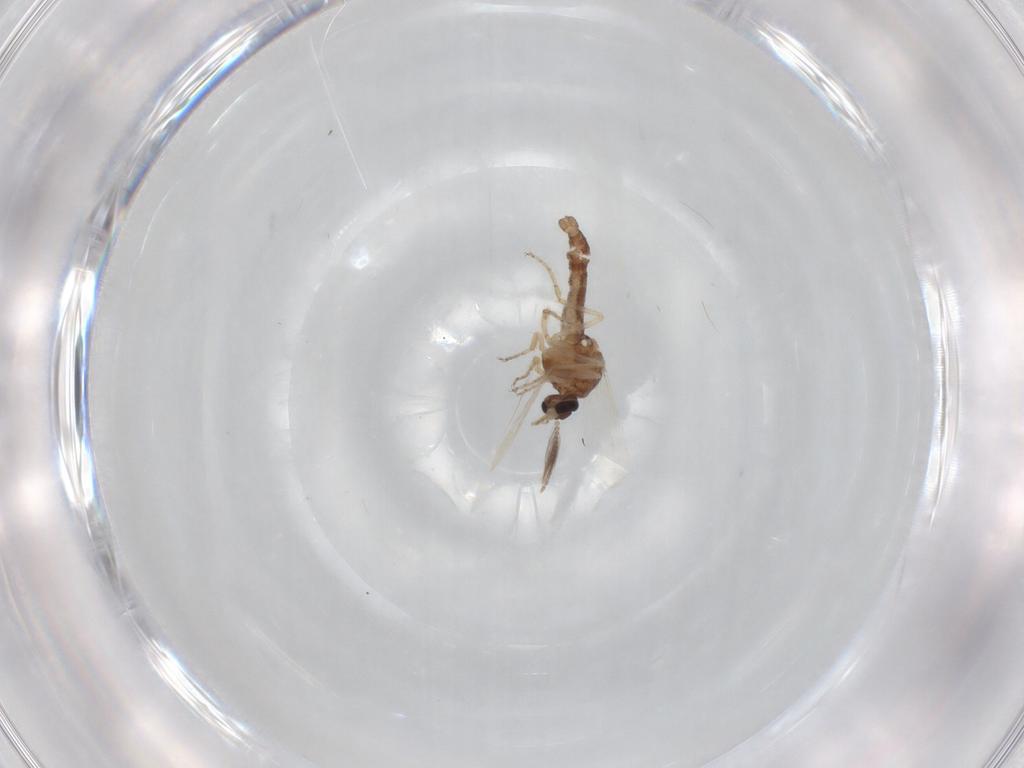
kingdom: Animalia
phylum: Arthropoda
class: Insecta
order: Diptera
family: Ceratopogonidae
